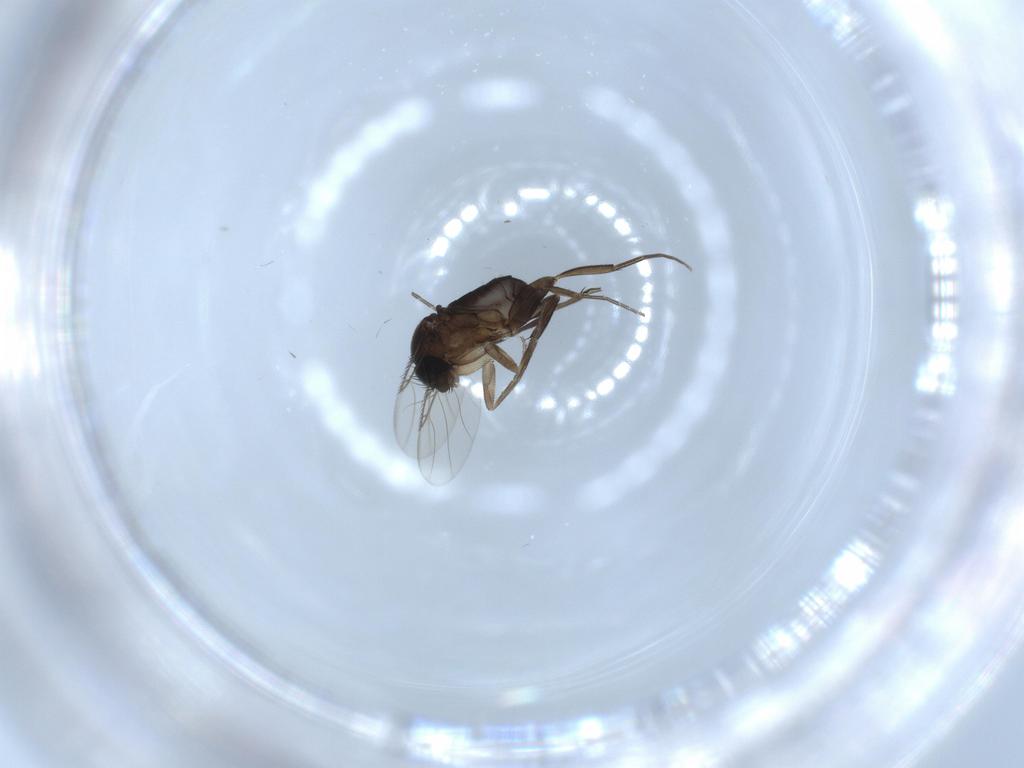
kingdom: Animalia
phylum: Arthropoda
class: Insecta
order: Diptera
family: Phoridae
